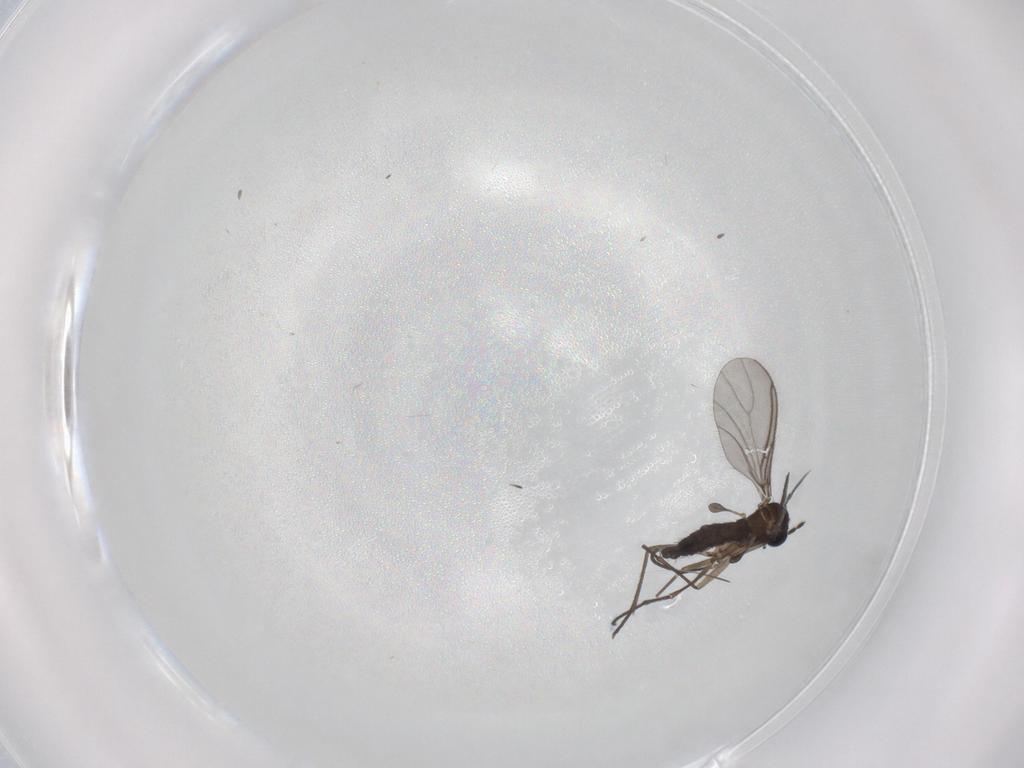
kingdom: Animalia
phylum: Arthropoda
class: Insecta
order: Diptera
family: Sciaridae
